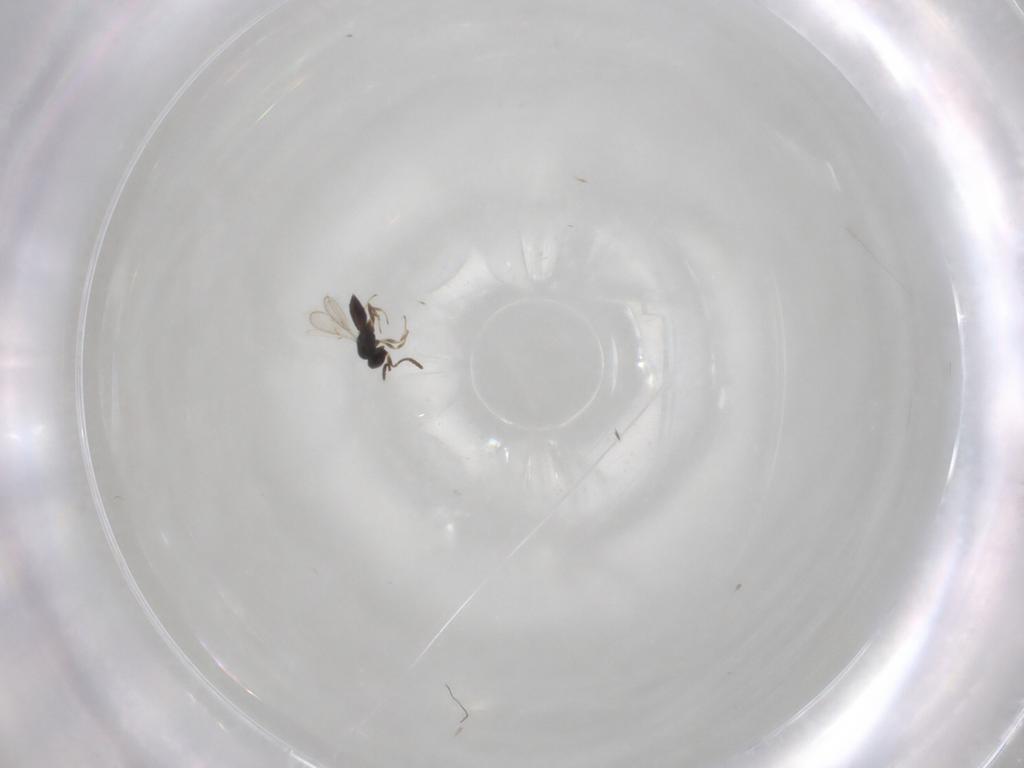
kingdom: Animalia
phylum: Arthropoda
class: Insecta
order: Hymenoptera
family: Scelionidae
